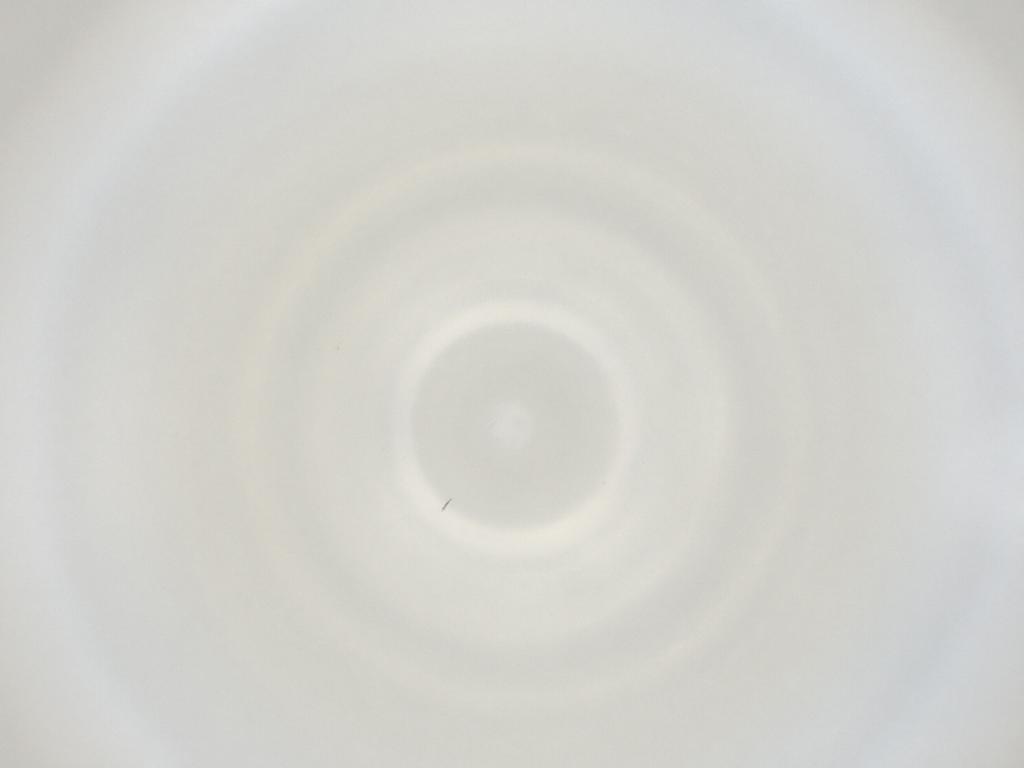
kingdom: Animalia
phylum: Arthropoda
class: Insecta
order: Diptera
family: Cecidomyiidae
